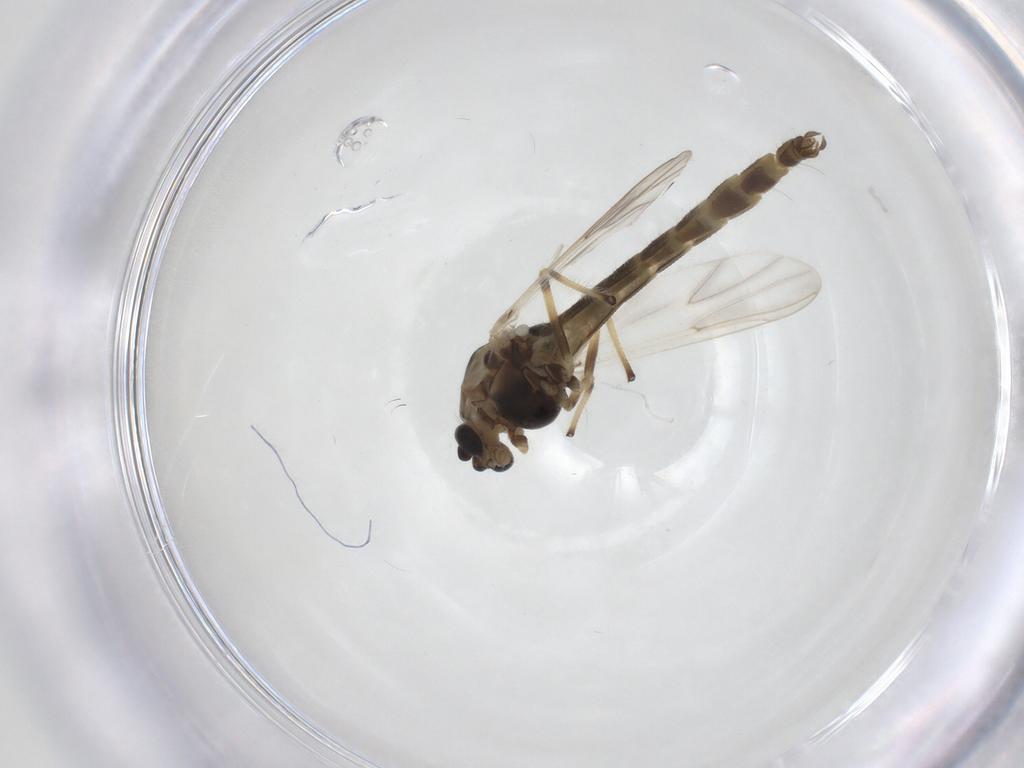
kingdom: Animalia
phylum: Arthropoda
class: Insecta
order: Diptera
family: Chironomidae
